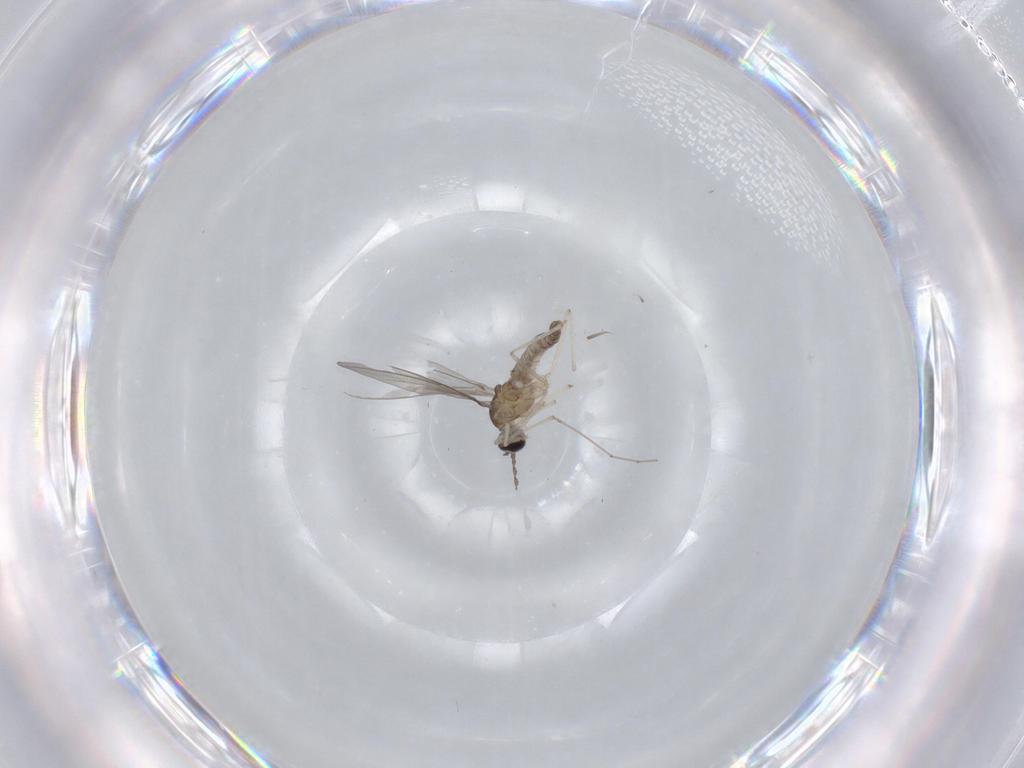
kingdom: Animalia
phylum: Arthropoda
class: Insecta
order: Diptera
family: Cecidomyiidae
